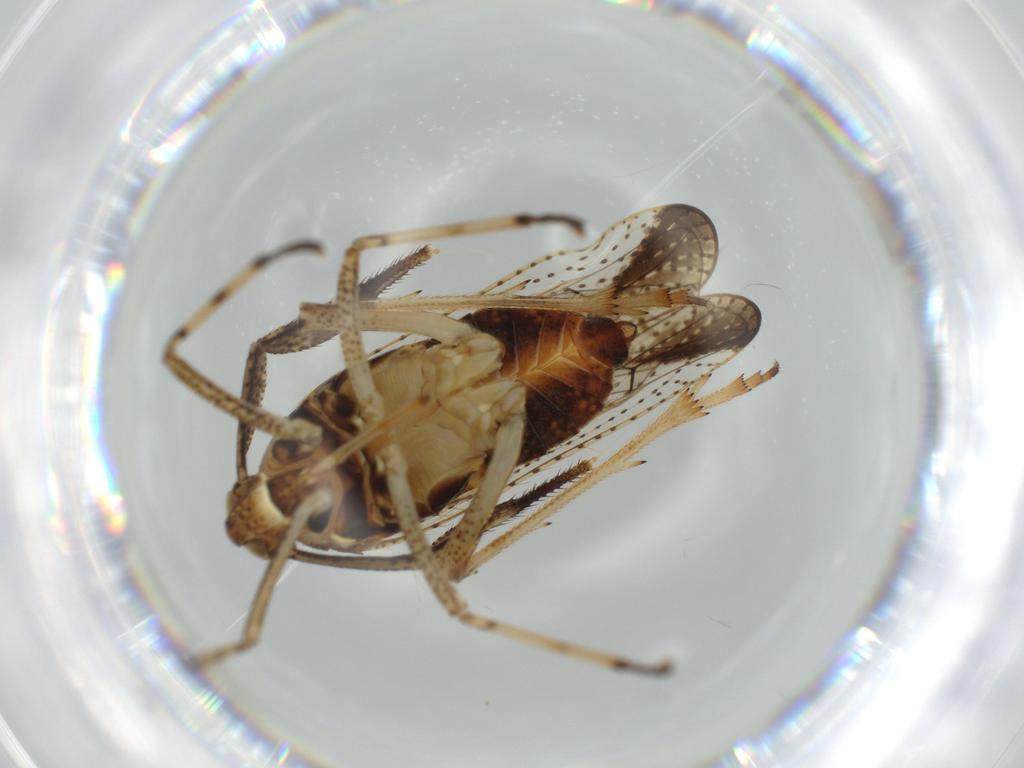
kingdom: Animalia
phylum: Arthropoda
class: Insecta
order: Hemiptera
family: Aleyrodidae
